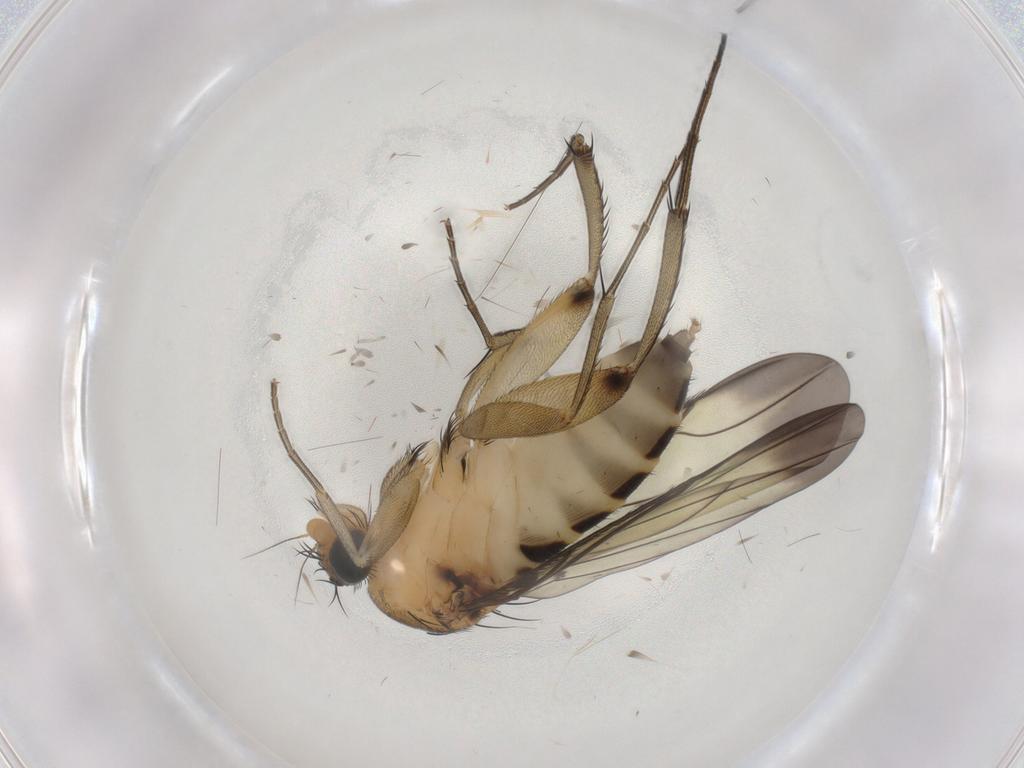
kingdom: Animalia
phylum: Arthropoda
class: Insecta
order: Diptera
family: Phoridae
